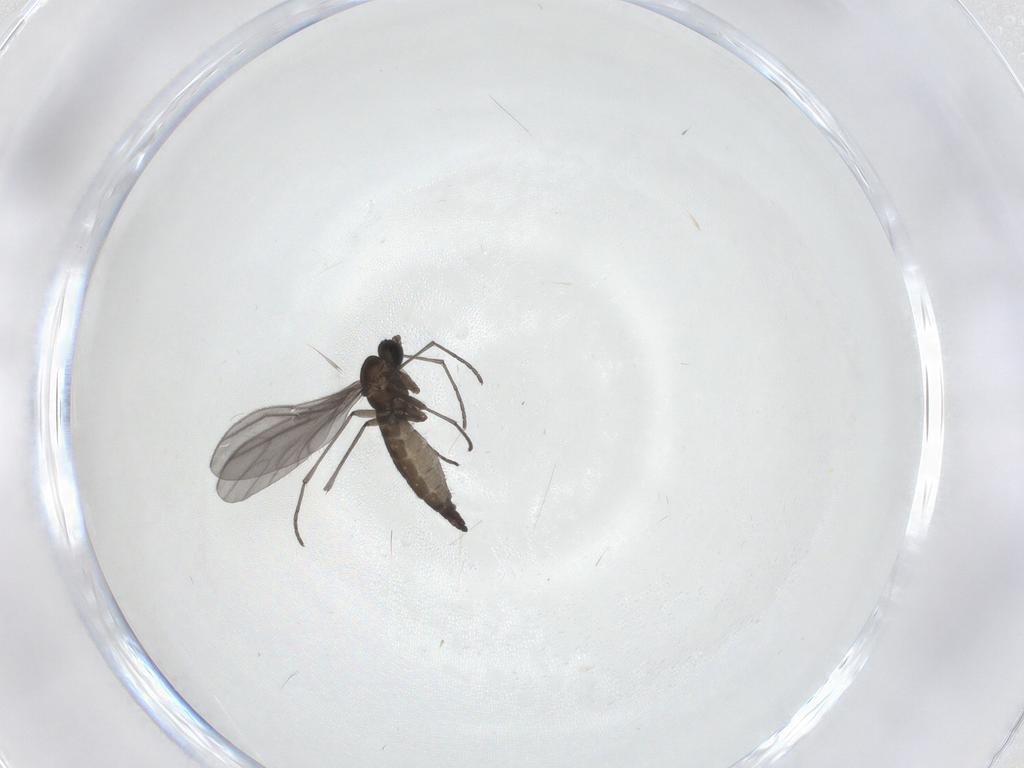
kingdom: Animalia
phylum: Arthropoda
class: Insecta
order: Diptera
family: Sciaridae
